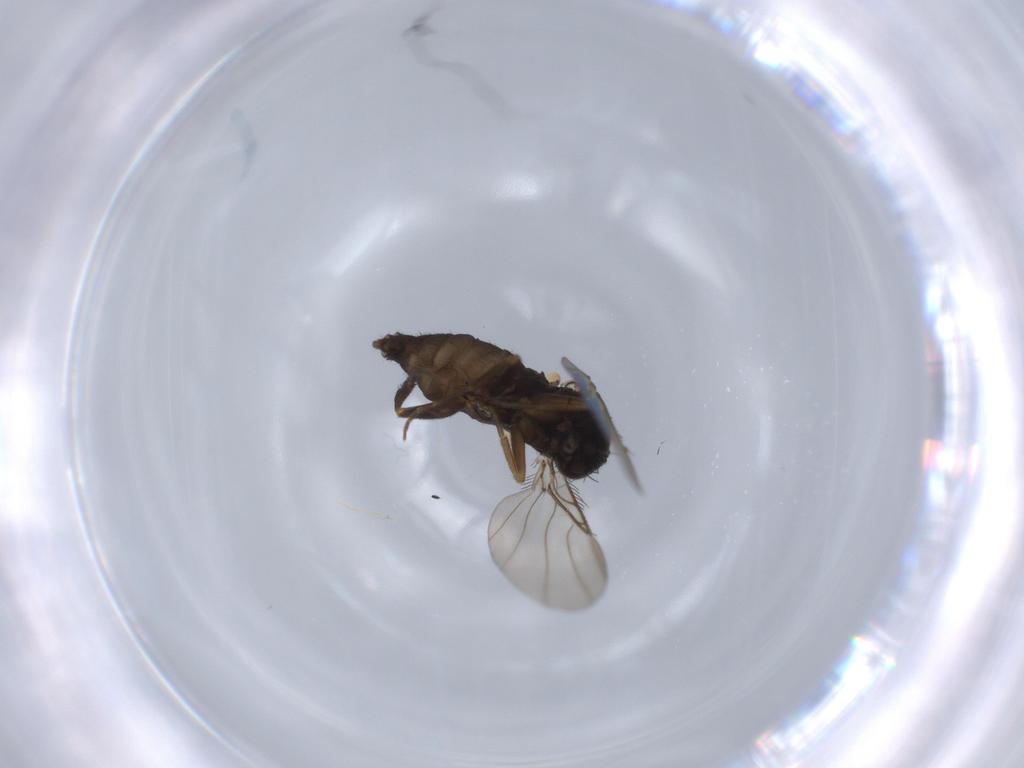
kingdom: Animalia
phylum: Arthropoda
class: Insecta
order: Diptera
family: Phoridae
